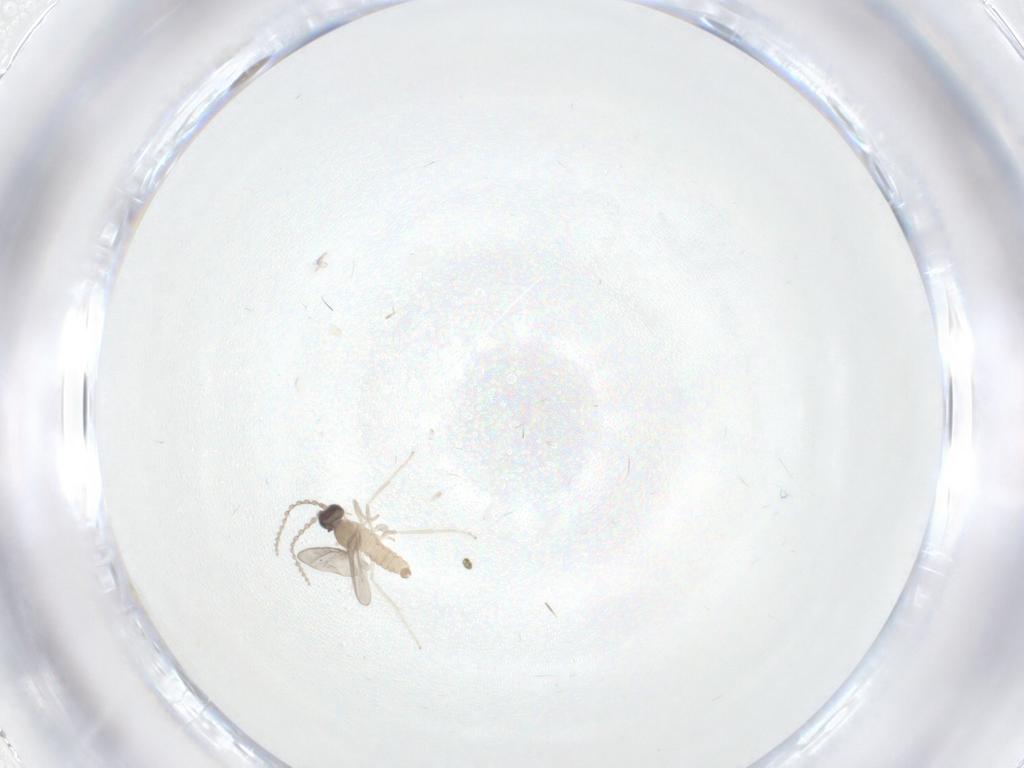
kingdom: Animalia
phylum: Arthropoda
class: Insecta
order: Diptera
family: Cecidomyiidae
